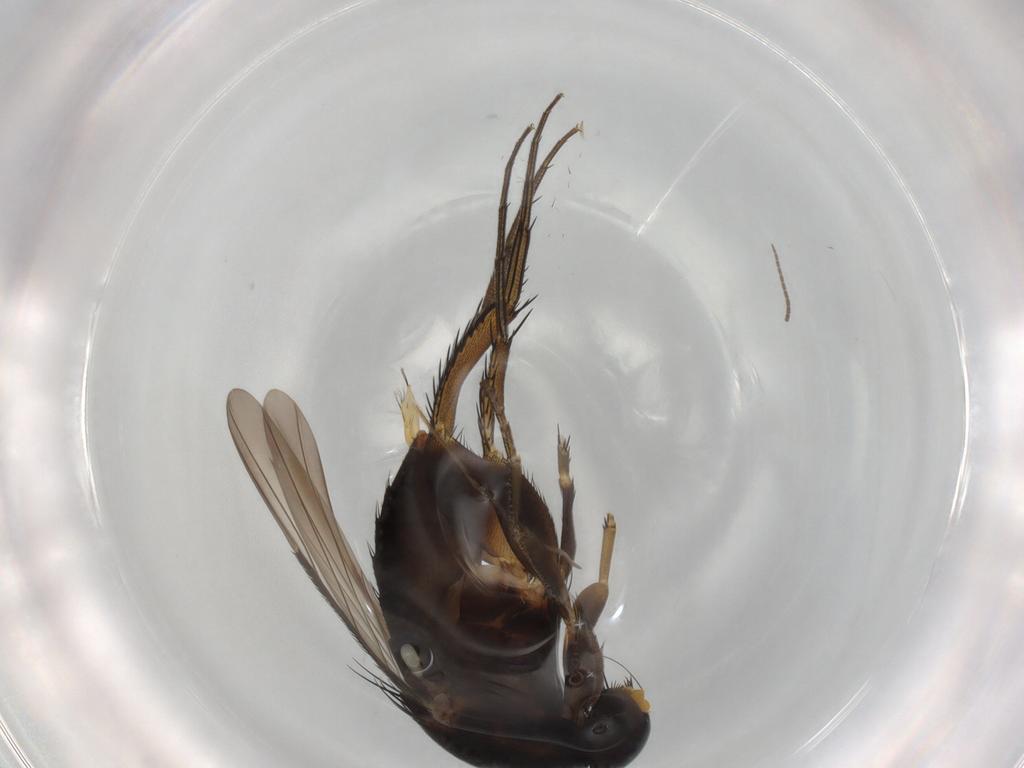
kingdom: Animalia
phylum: Arthropoda
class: Insecta
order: Diptera
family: Phoridae
